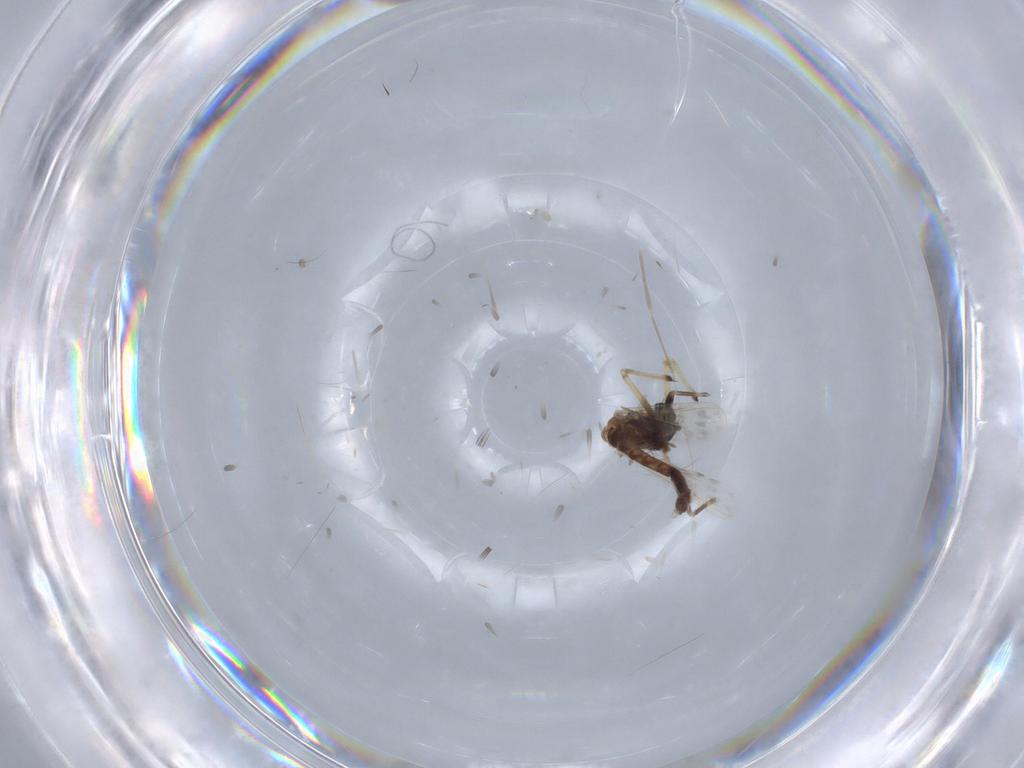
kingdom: Animalia
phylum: Arthropoda
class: Insecta
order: Diptera
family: Chironomidae
